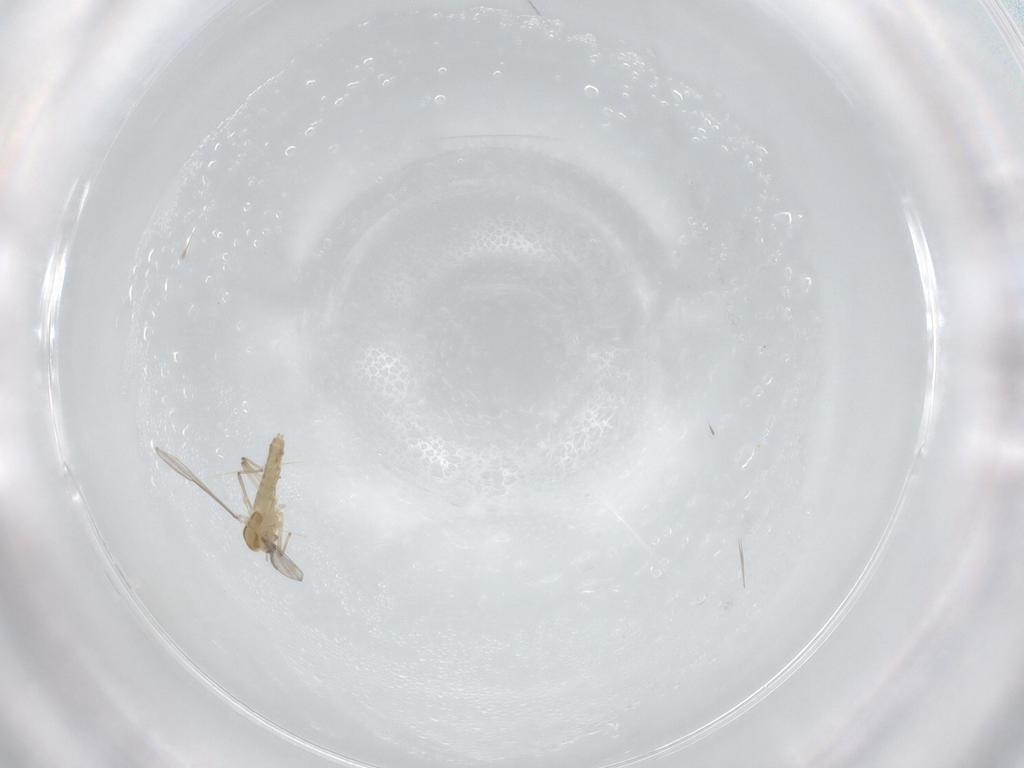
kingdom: Animalia
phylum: Arthropoda
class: Insecta
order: Diptera
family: Chironomidae
